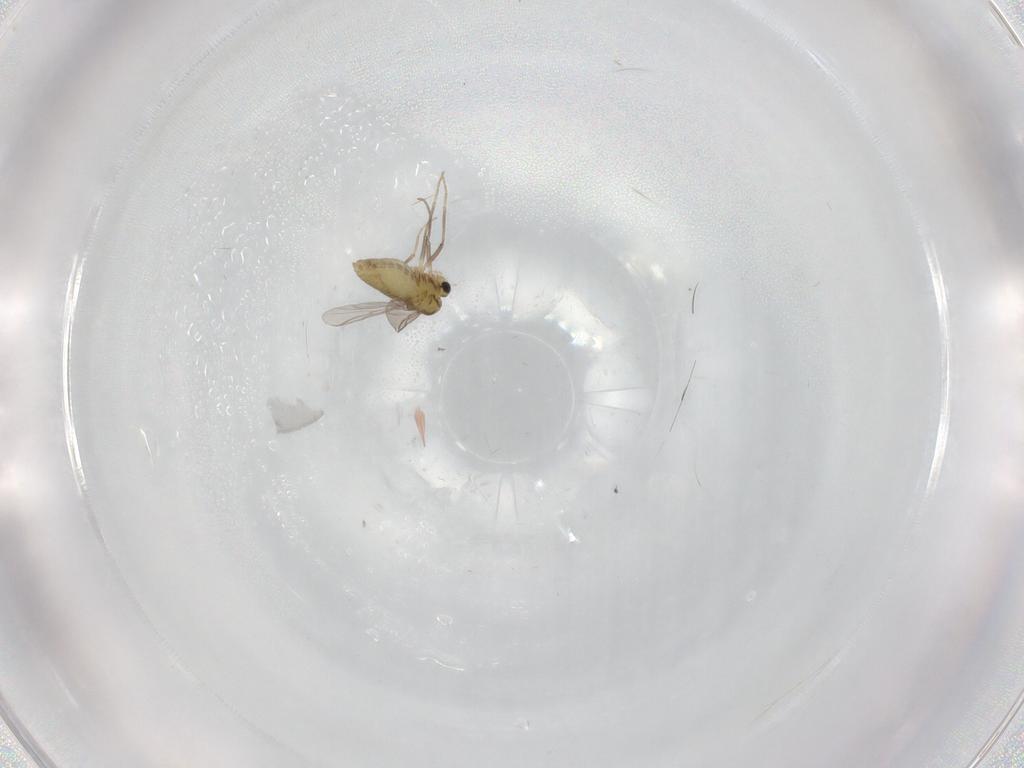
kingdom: Animalia
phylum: Arthropoda
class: Insecta
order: Diptera
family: Chironomidae
